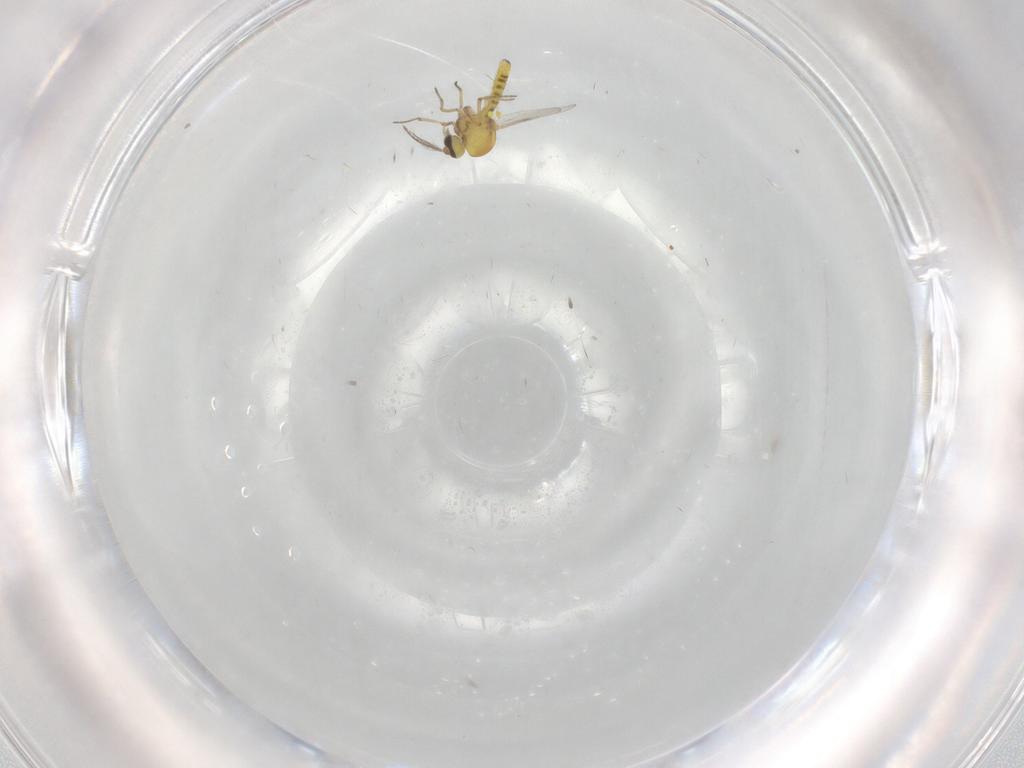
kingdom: Animalia
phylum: Arthropoda
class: Insecta
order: Diptera
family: Ceratopogonidae
